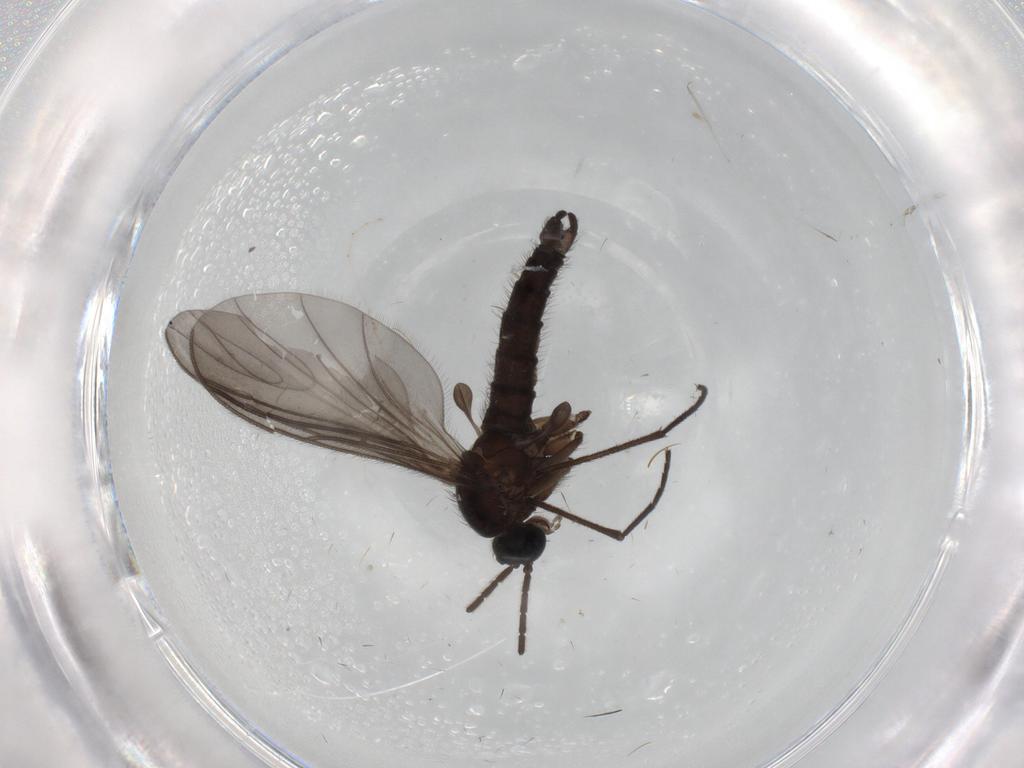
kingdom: Animalia
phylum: Arthropoda
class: Insecta
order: Diptera
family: Sciaridae
